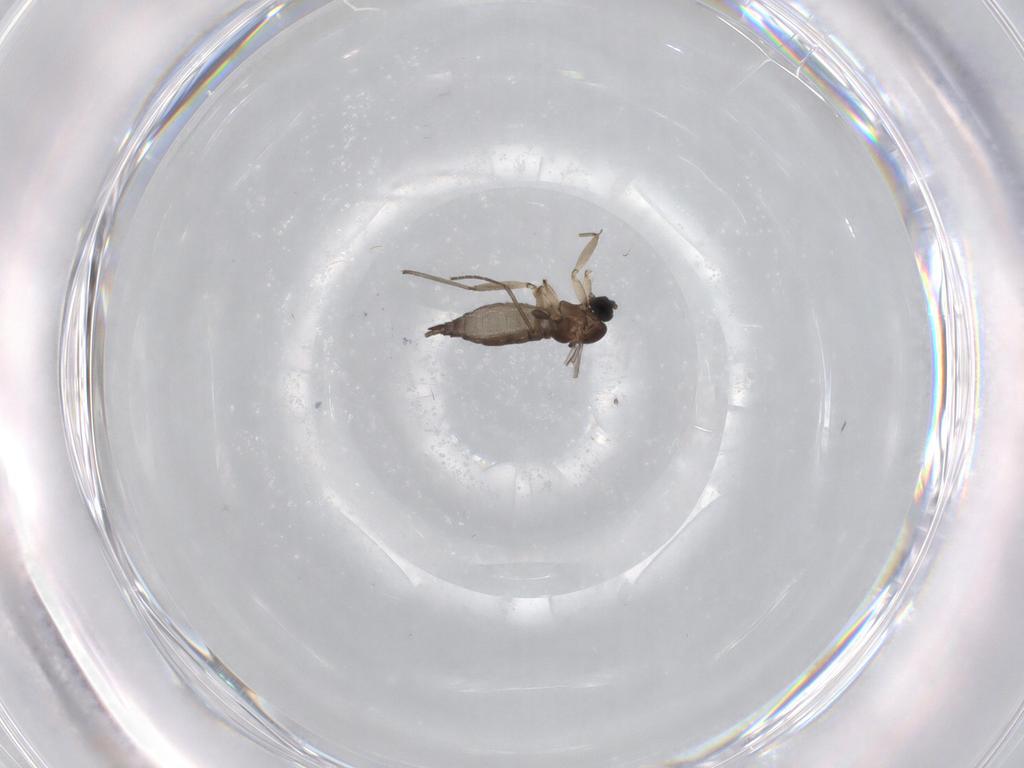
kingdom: Animalia
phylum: Arthropoda
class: Insecta
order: Diptera
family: Sciaridae
